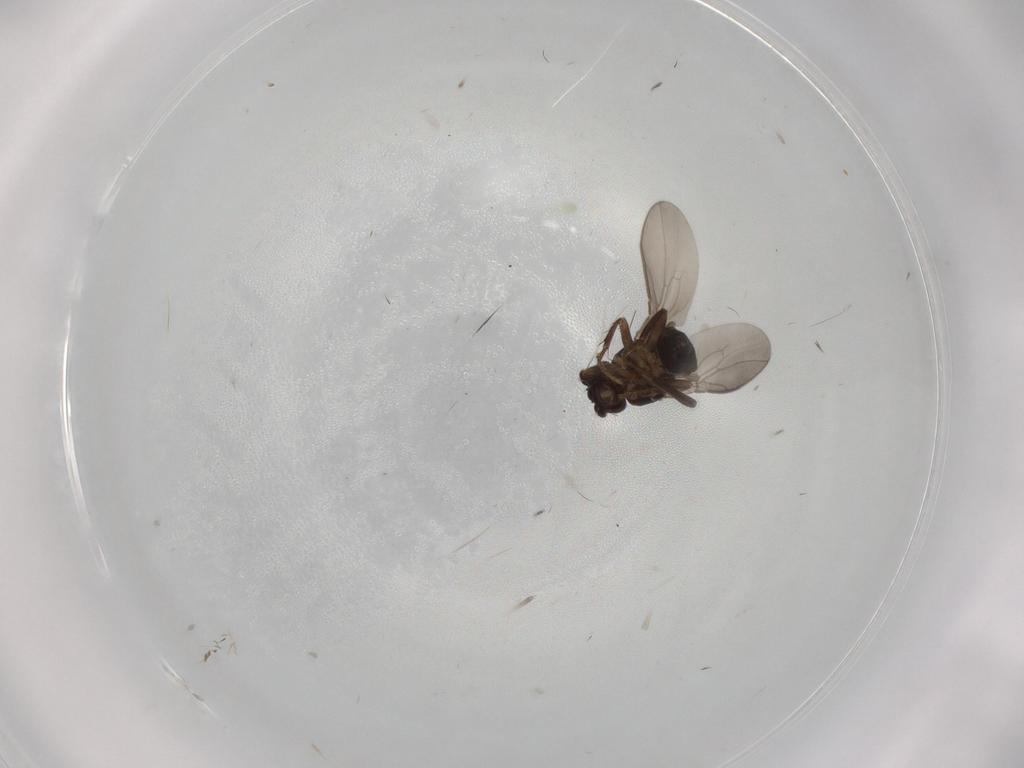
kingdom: Animalia
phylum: Arthropoda
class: Insecta
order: Diptera
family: Sphaeroceridae
